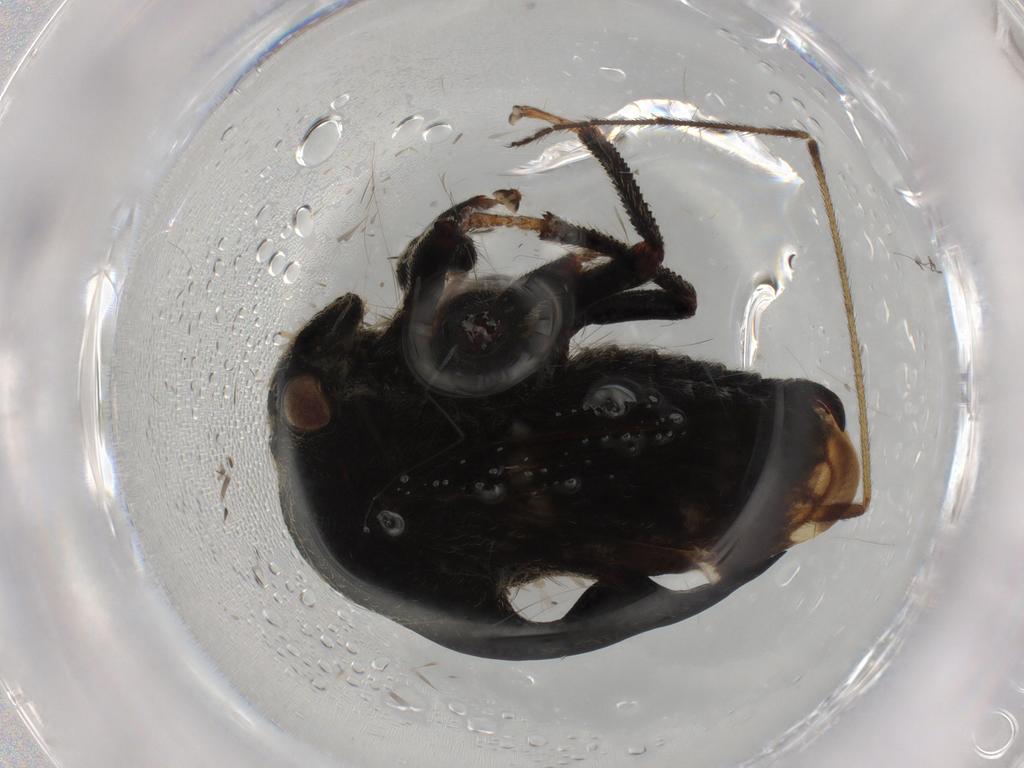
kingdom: Animalia
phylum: Arthropoda
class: Insecta
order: Hemiptera
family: Membracidae
